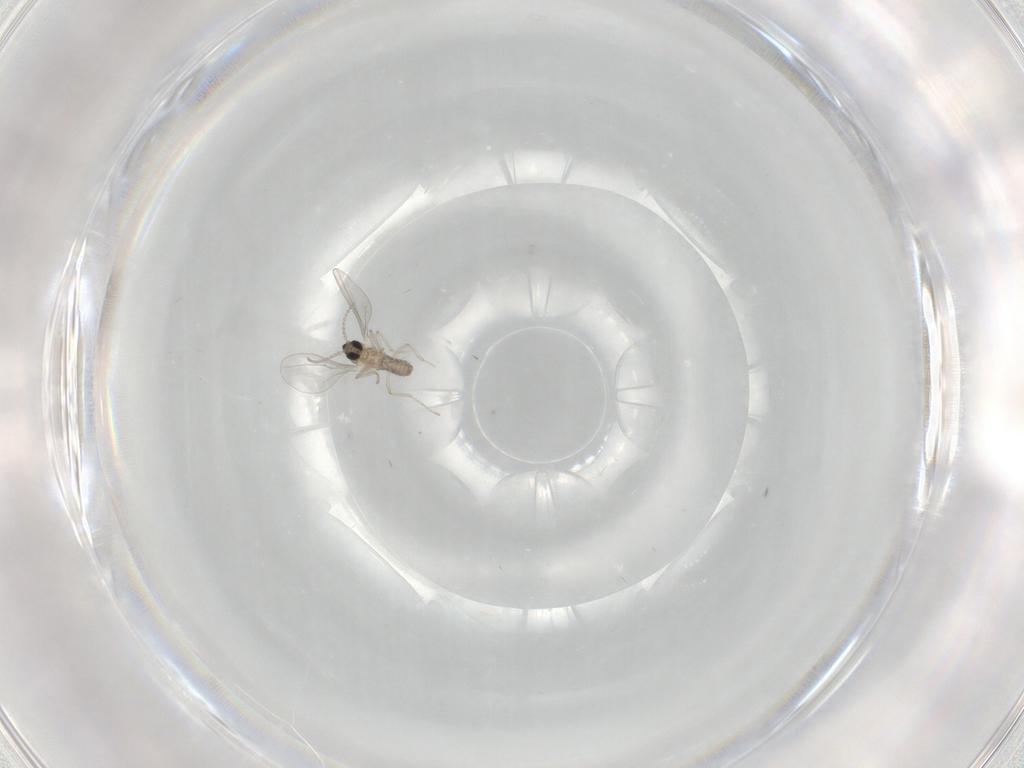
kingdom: Animalia
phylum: Arthropoda
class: Insecta
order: Diptera
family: Cecidomyiidae
